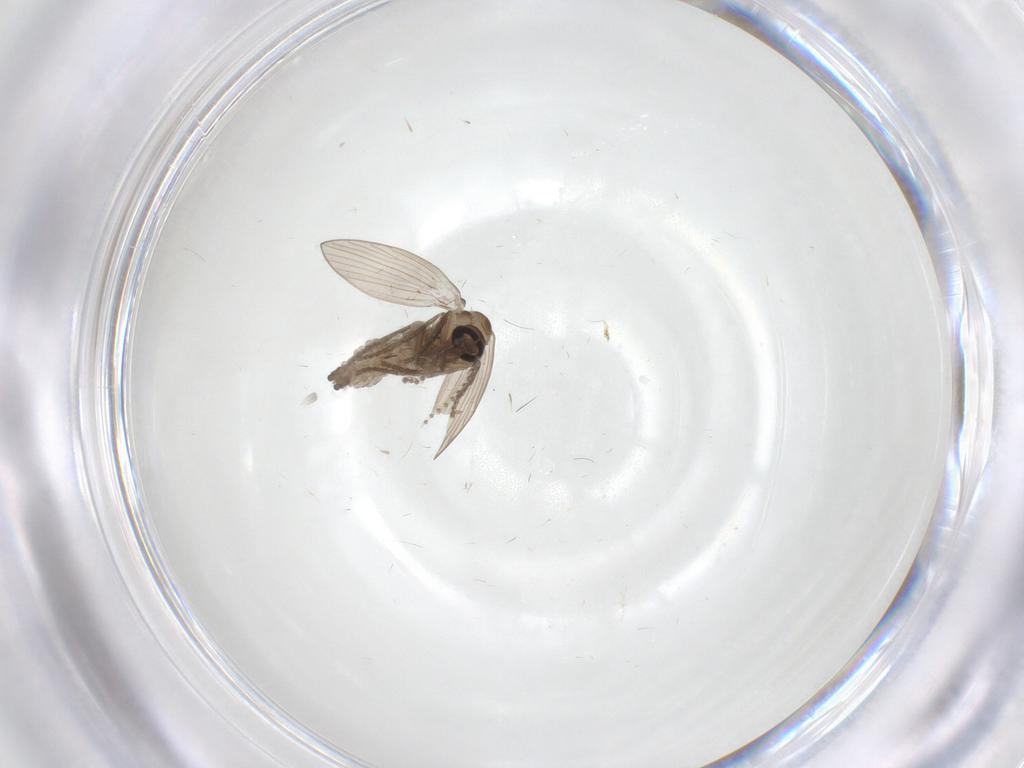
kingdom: Animalia
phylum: Arthropoda
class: Insecta
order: Diptera
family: Psychodidae
